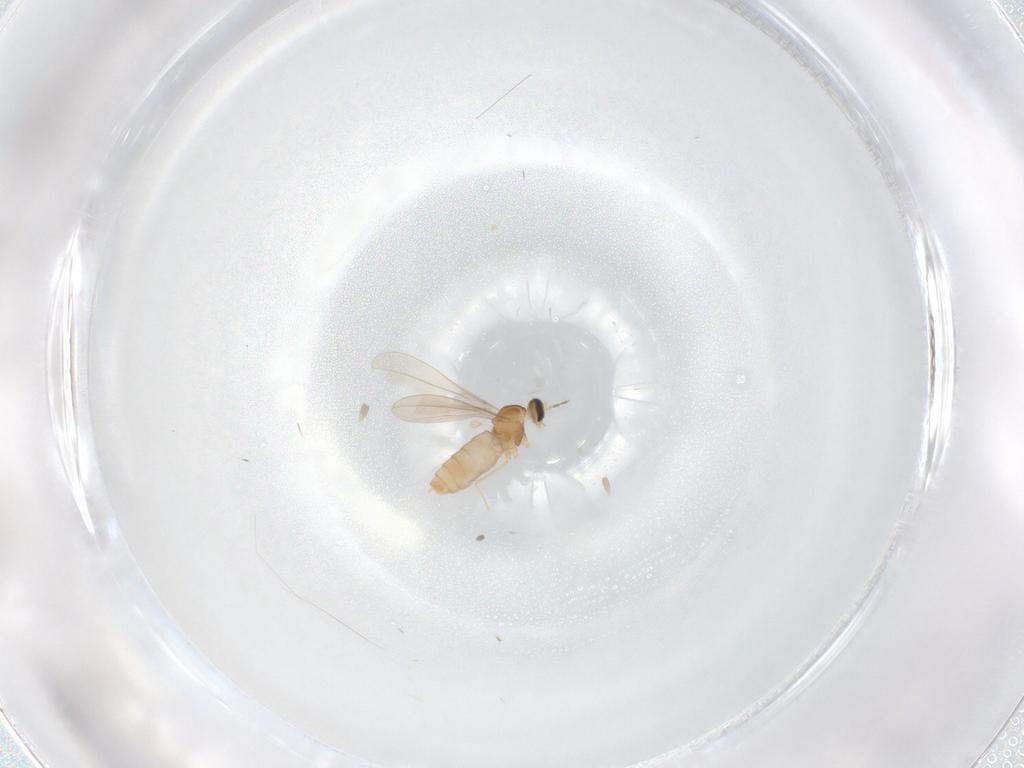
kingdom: Animalia
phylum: Arthropoda
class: Insecta
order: Diptera
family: Cecidomyiidae
